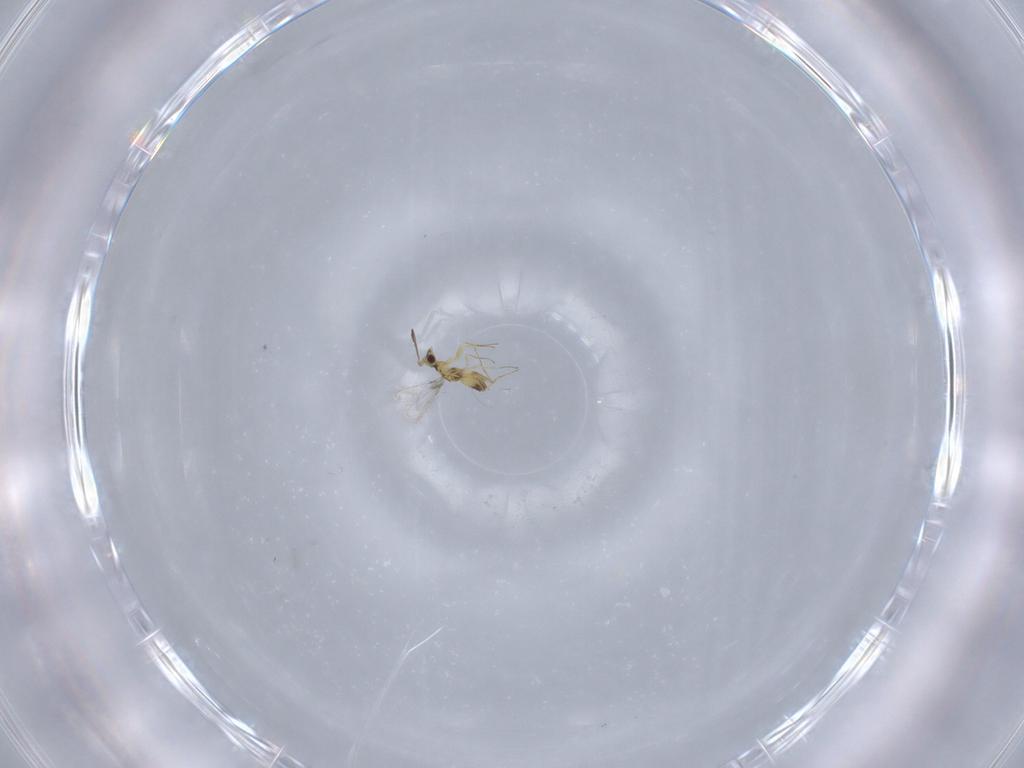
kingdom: Animalia
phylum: Arthropoda
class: Insecta
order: Hymenoptera
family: Mymaridae
